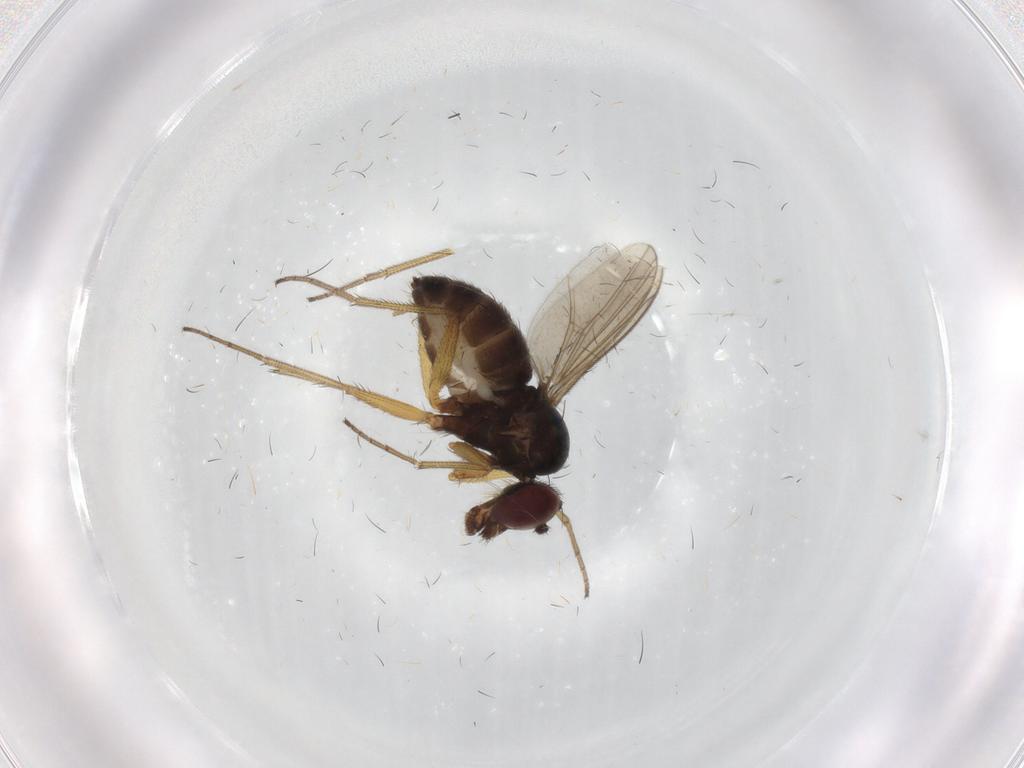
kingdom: Animalia
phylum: Arthropoda
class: Insecta
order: Diptera
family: Dolichopodidae
